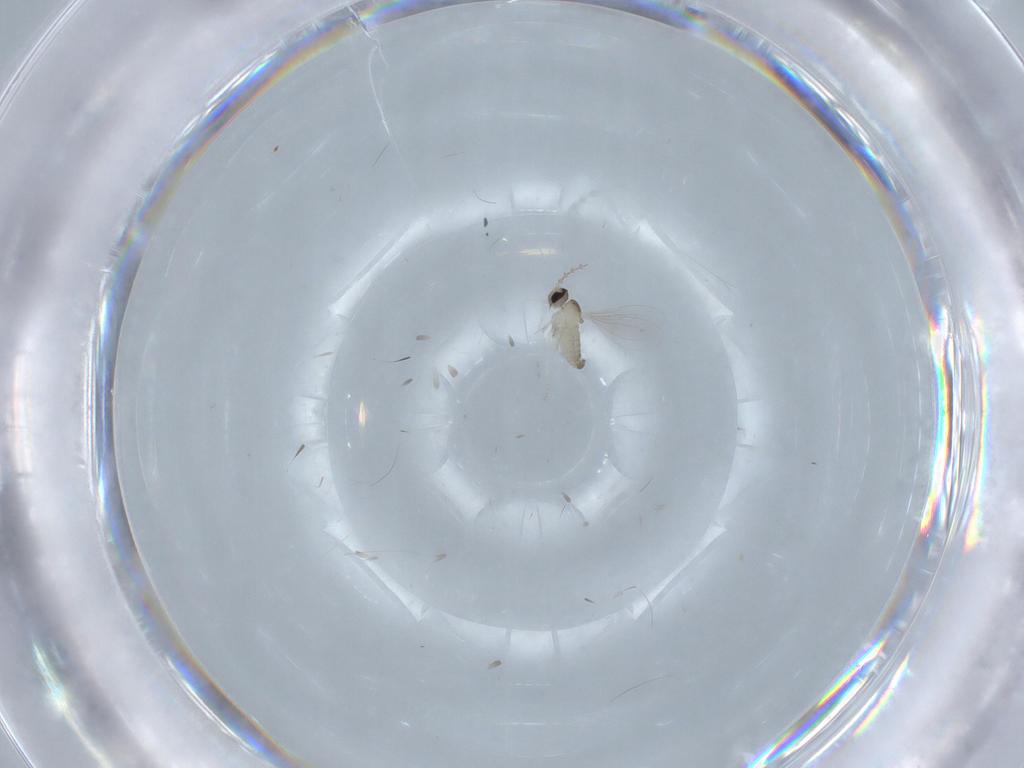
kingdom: Animalia
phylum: Arthropoda
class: Insecta
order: Diptera
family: Cecidomyiidae
